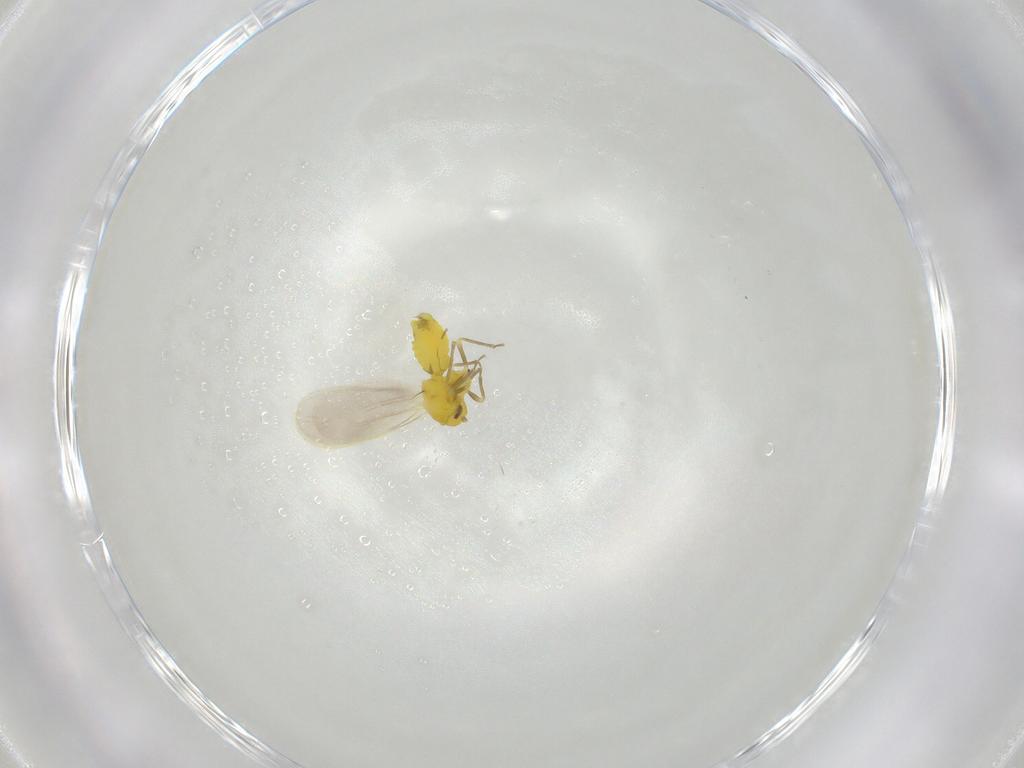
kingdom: Animalia
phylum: Arthropoda
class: Insecta
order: Hemiptera
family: Aleyrodidae
